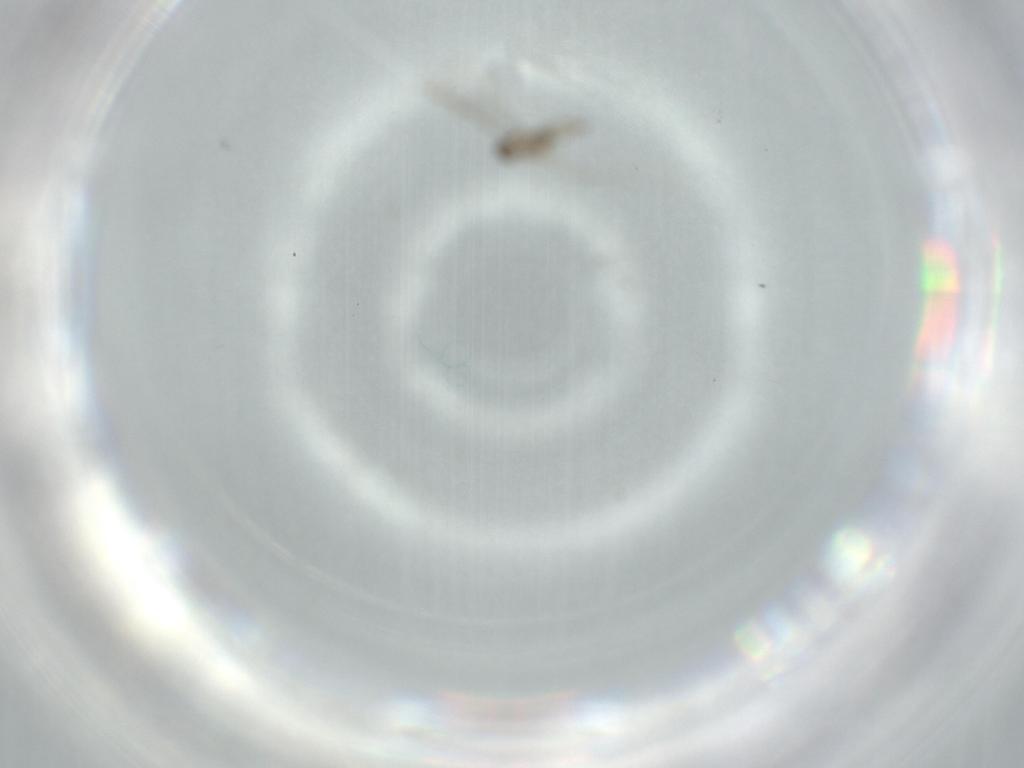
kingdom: Animalia
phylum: Arthropoda
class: Insecta
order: Diptera
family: Cecidomyiidae
